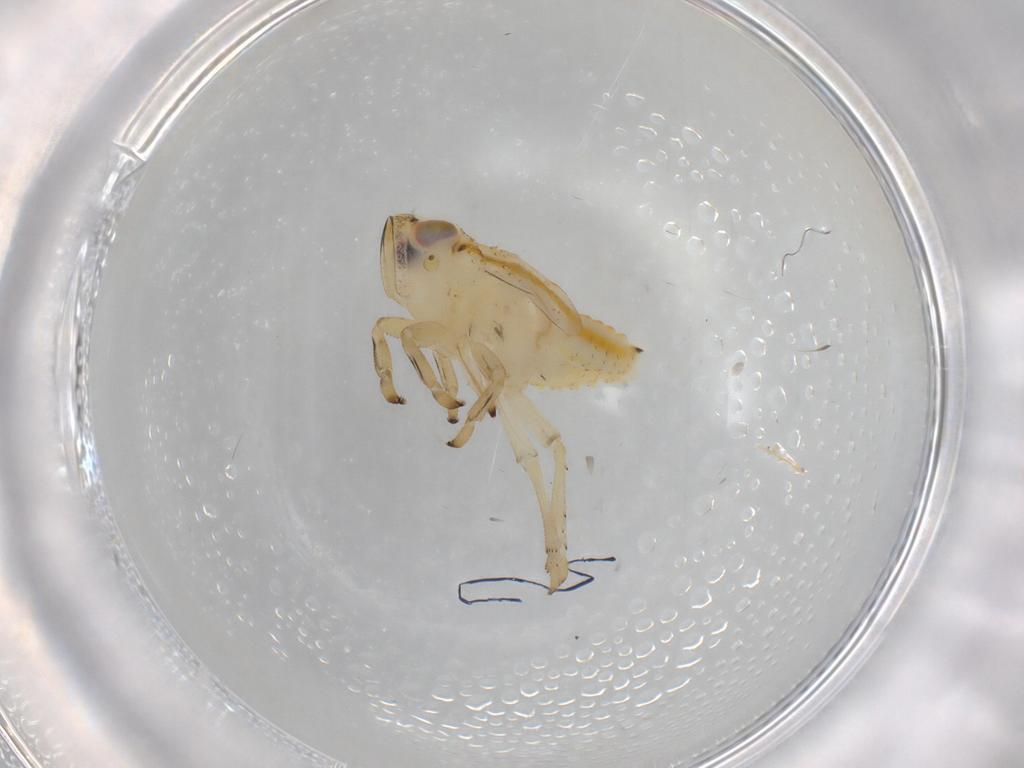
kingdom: Animalia
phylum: Arthropoda
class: Insecta
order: Hemiptera
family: Issidae
